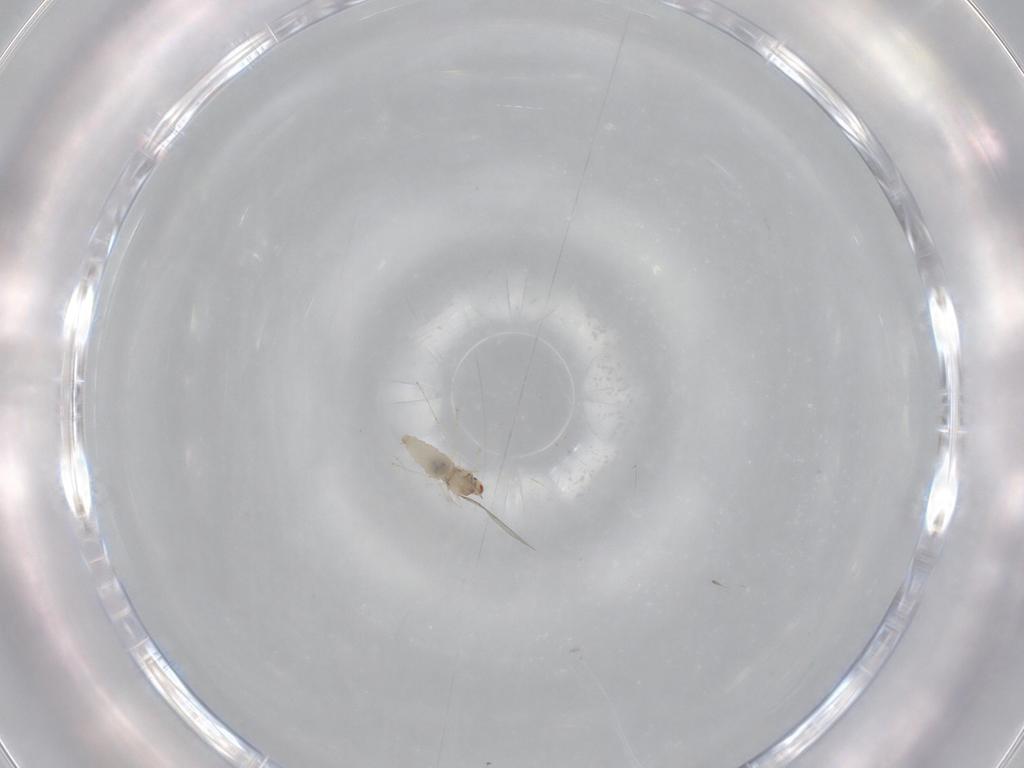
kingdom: Animalia
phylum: Arthropoda
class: Insecta
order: Diptera
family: Cecidomyiidae
